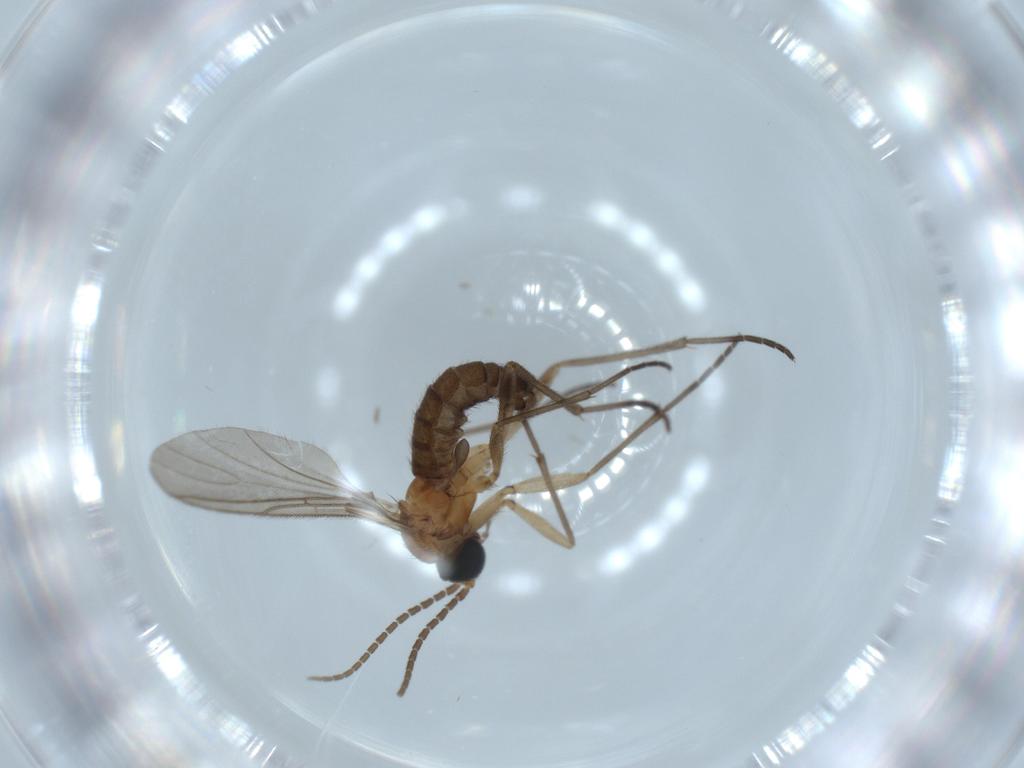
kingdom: Animalia
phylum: Arthropoda
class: Insecta
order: Diptera
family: Sciaridae
